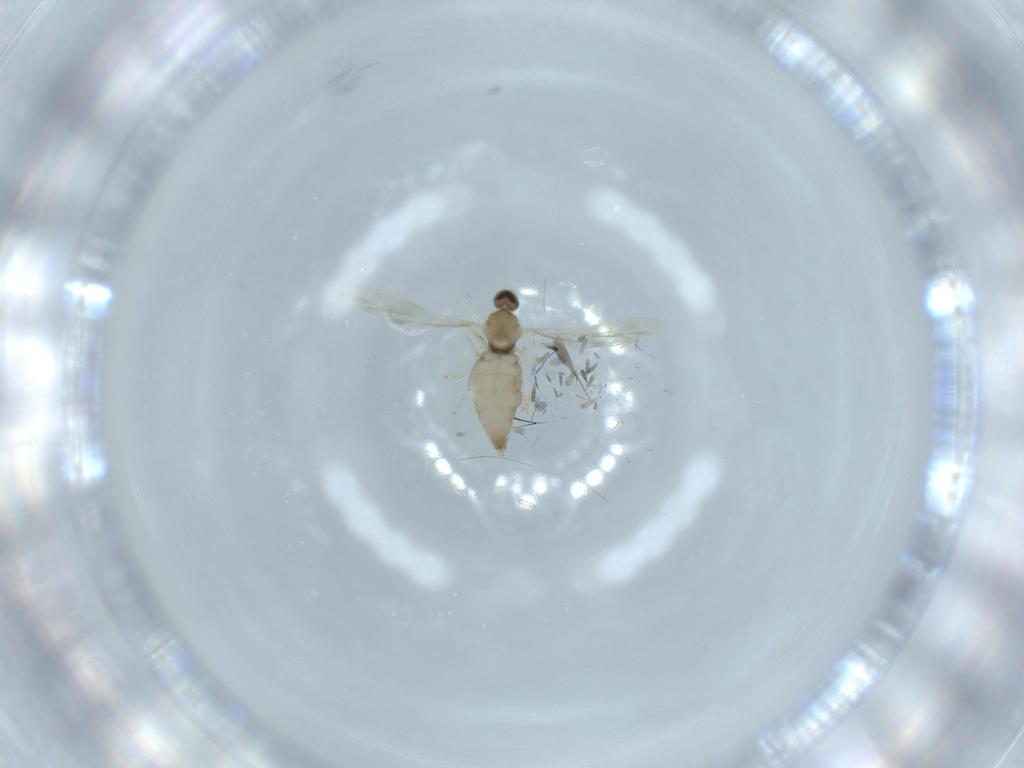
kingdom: Animalia
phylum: Arthropoda
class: Insecta
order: Diptera
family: Cecidomyiidae
